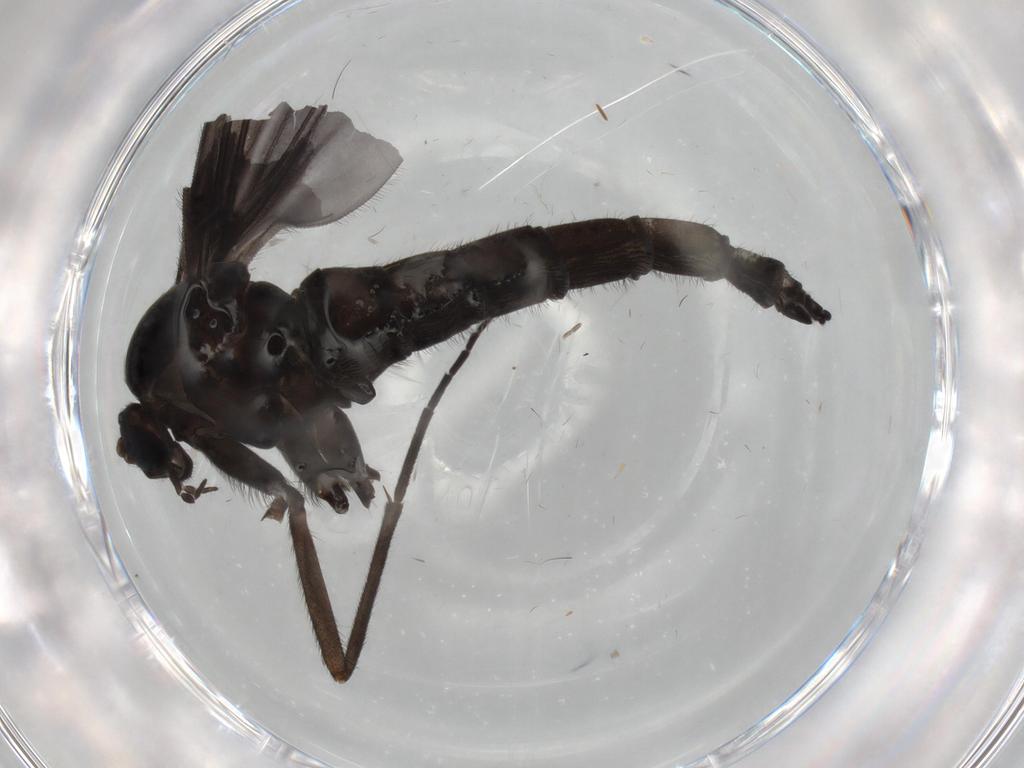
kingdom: Animalia
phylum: Arthropoda
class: Insecta
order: Diptera
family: Sciaridae
